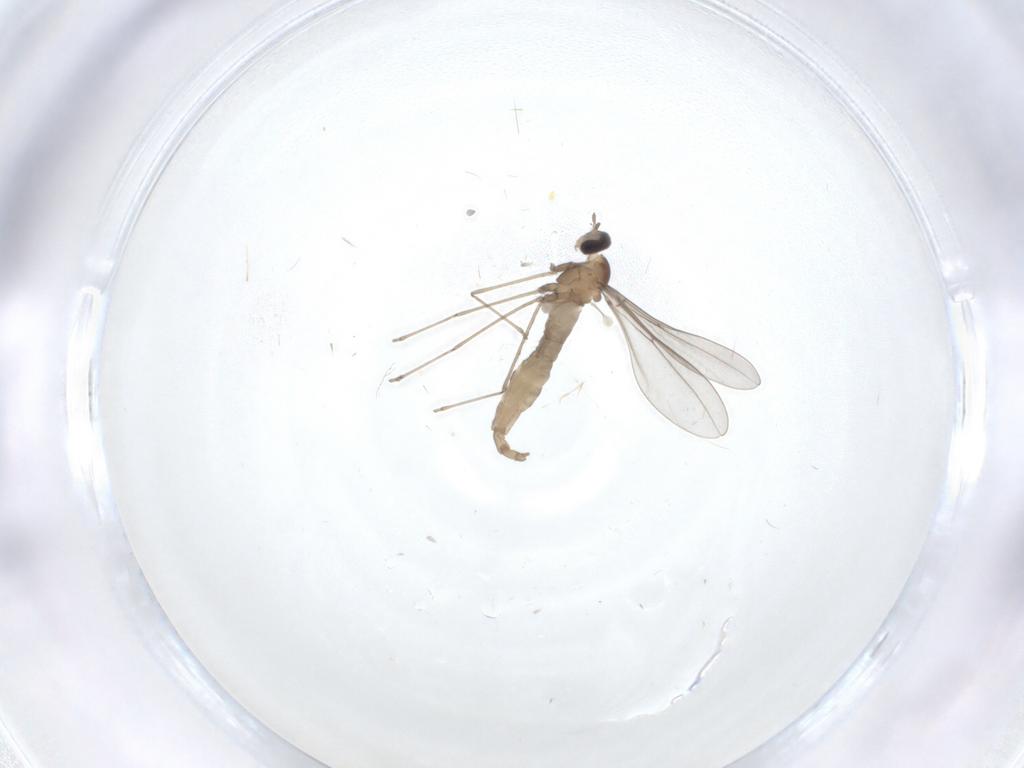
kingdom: Animalia
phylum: Arthropoda
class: Insecta
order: Diptera
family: Cecidomyiidae
